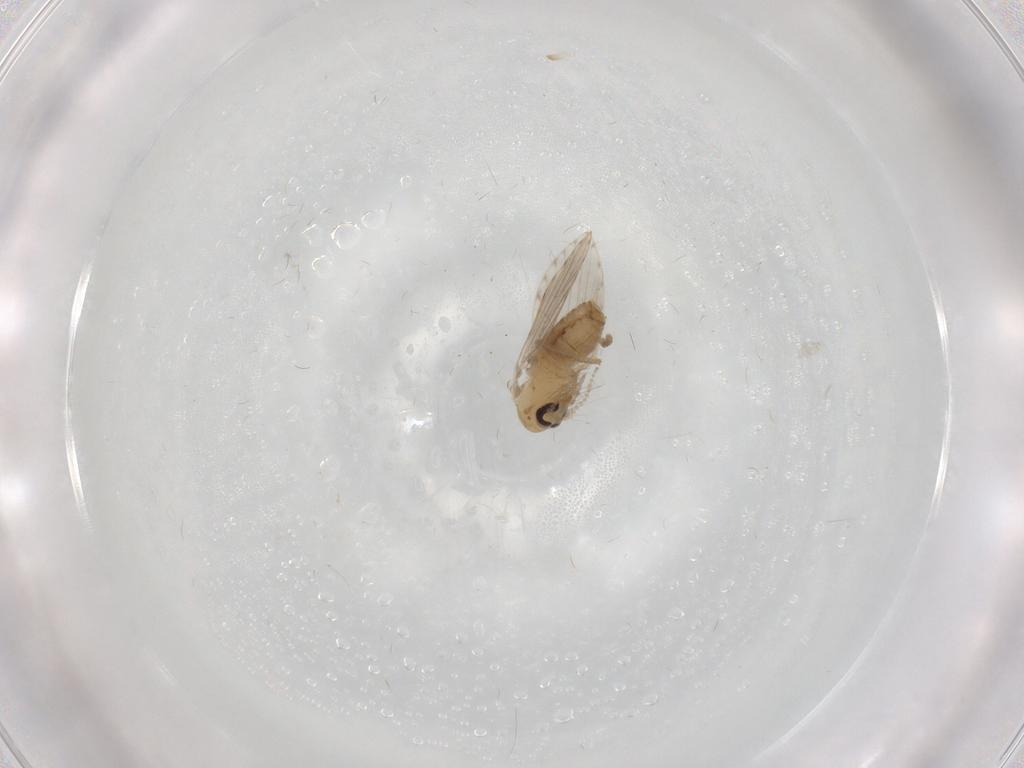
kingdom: Animalia
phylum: Arthropoda
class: Insecta
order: Diptera
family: Psychodidae
